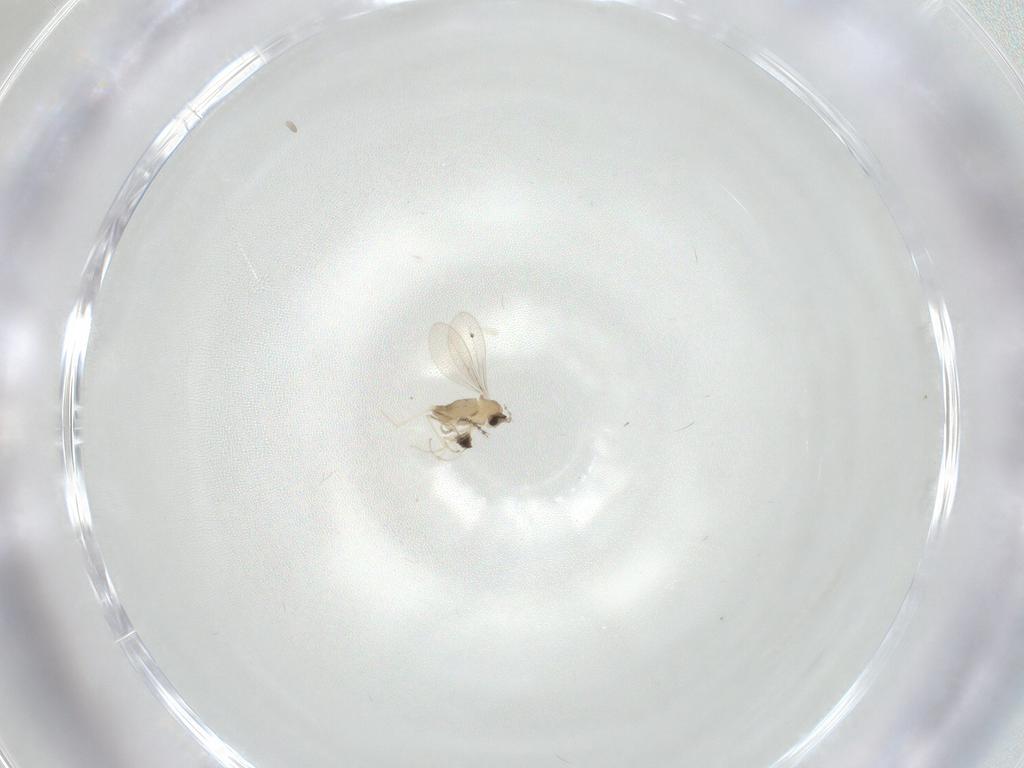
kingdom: Animalia
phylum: Arthropoda
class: Insecta
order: Diptera
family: Cecidomyiidae
